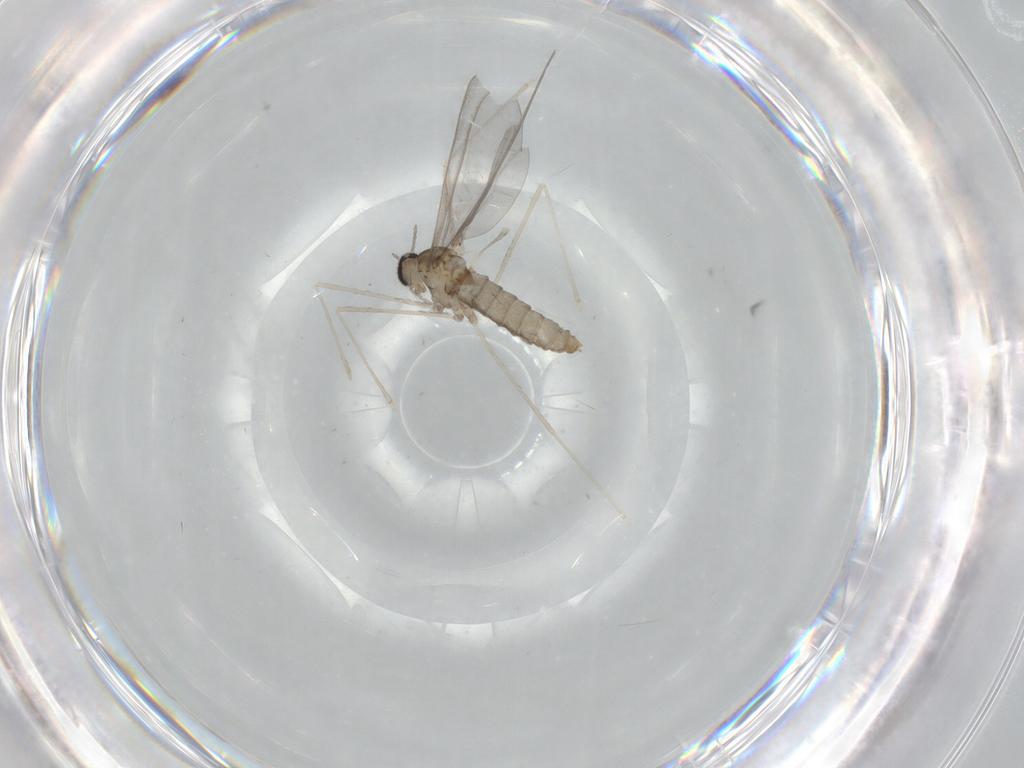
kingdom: Animalia
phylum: Arthropoda
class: Insecta
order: Diptera
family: Cecidomyiidae
